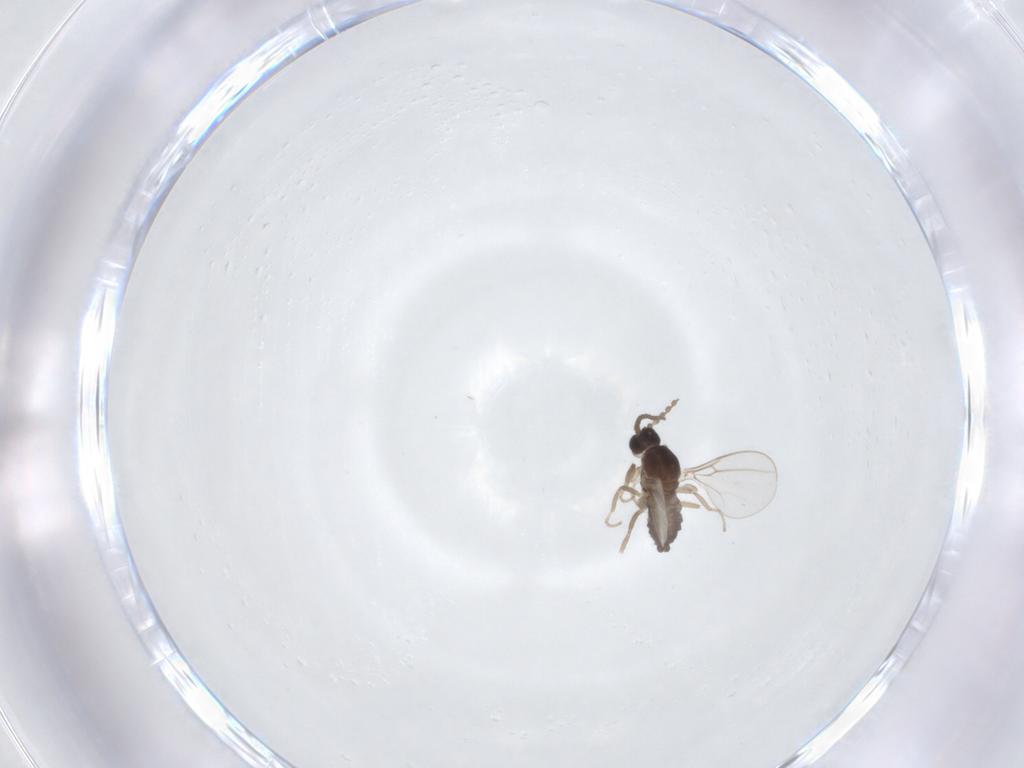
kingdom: Animalia
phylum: Arthropoda
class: Insecta
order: Diptera
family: Cecidomyiidae
